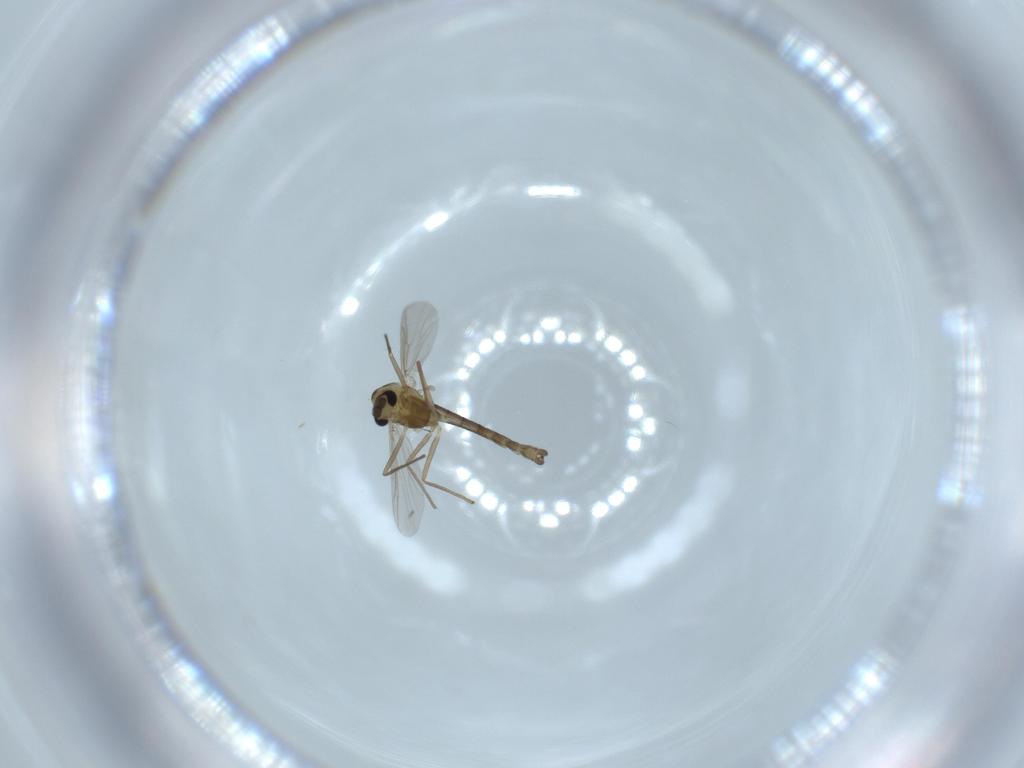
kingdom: Animalia
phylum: Arthropoda
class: Insecta
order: Diptera
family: Chironomidae
